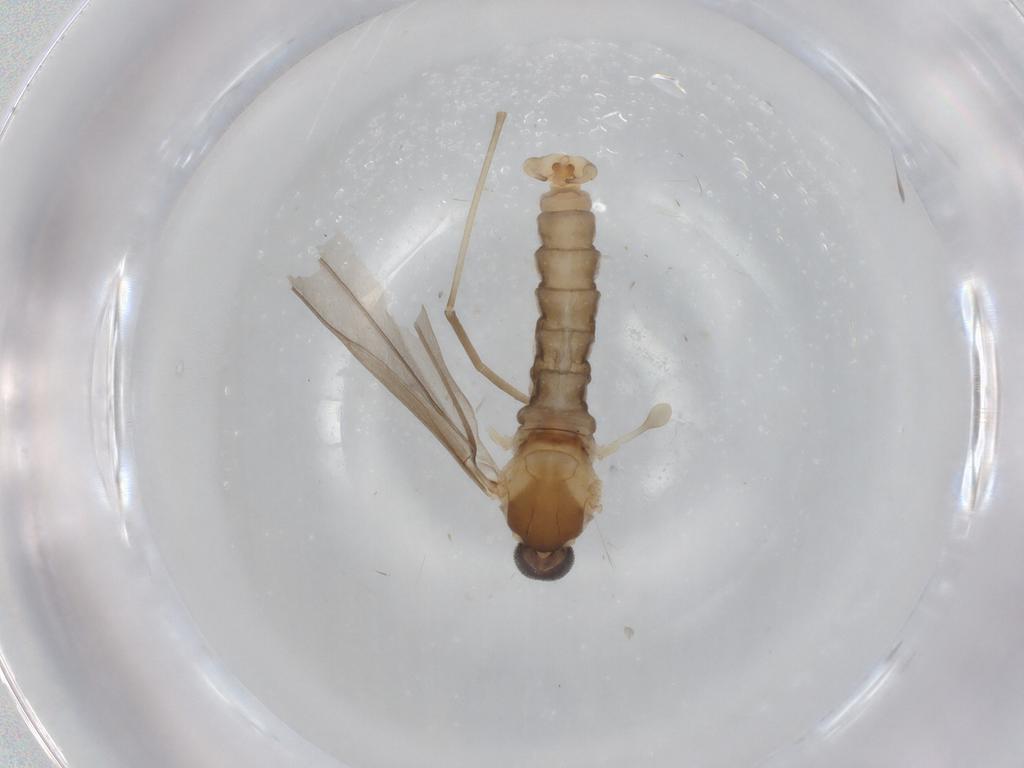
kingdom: Animalia
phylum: Arthropoda
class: Insecta
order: Diptera
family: Cecidomyiidae
